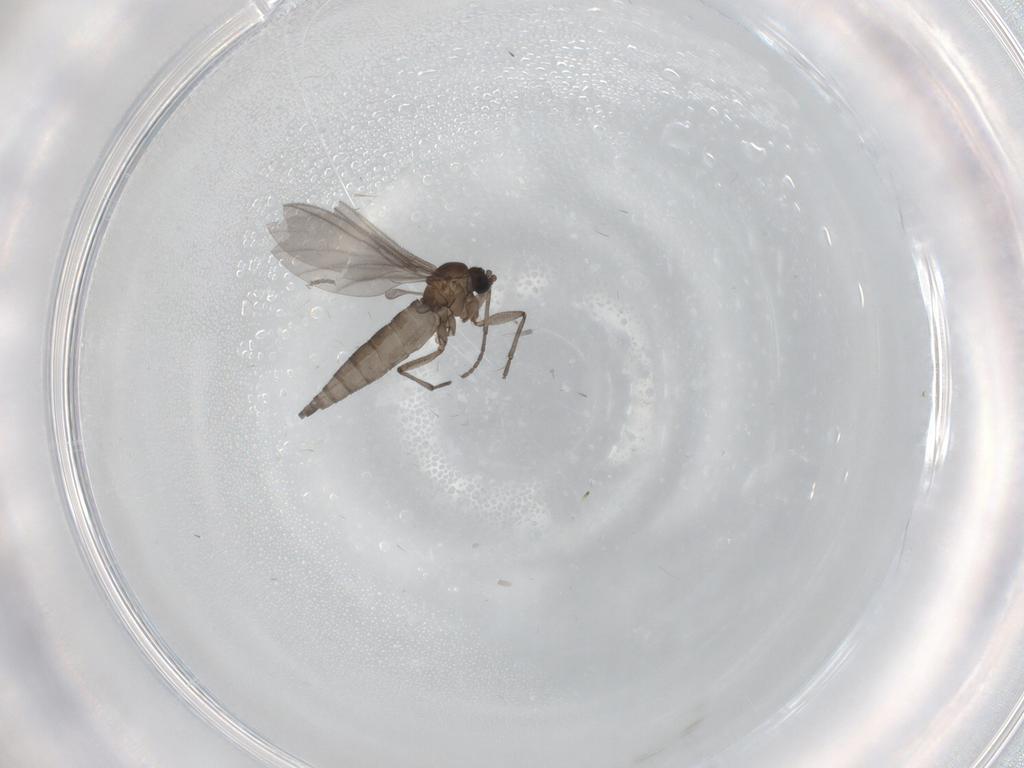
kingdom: Animalia
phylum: Arthropoda
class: Insecta
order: Diptera
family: Sciaridae
